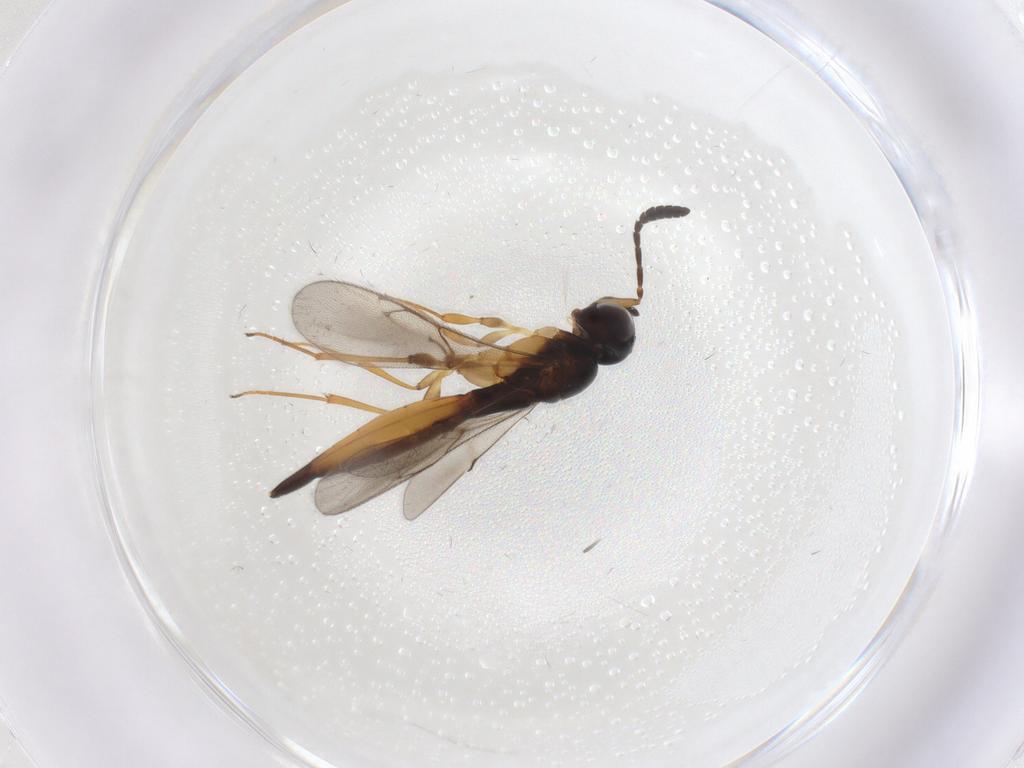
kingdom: Animalia
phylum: Arthropoda
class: Insecta
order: Hymenoptera
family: Scelionidae
